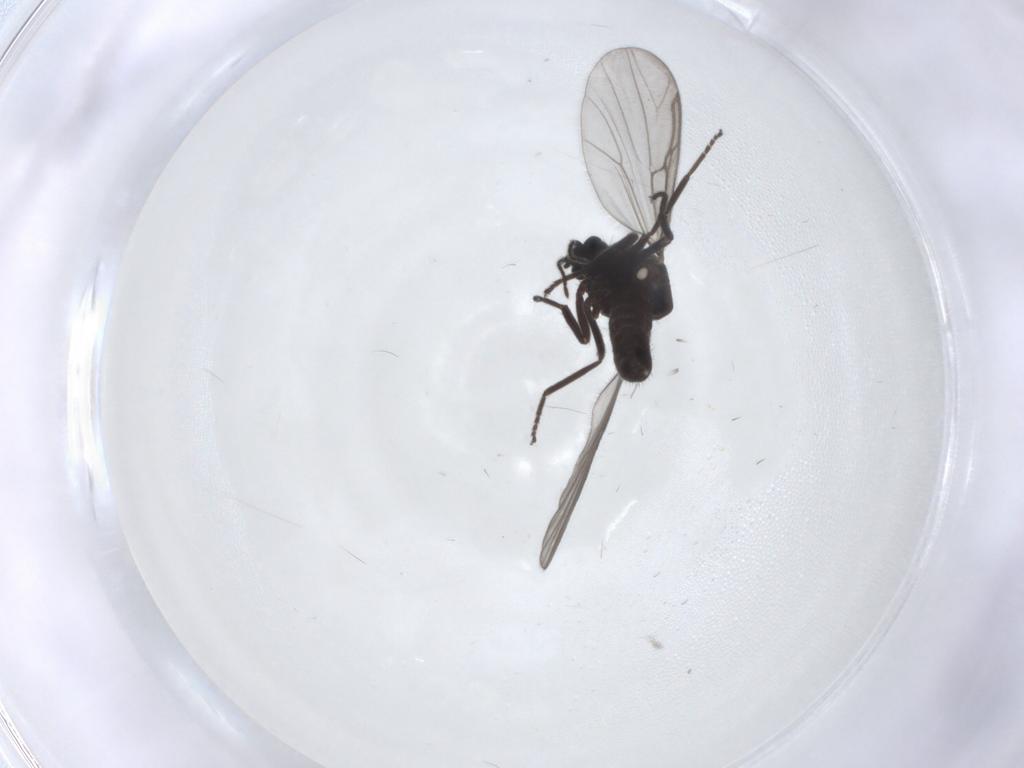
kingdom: Animalia
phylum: Arthropoda
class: Insecta
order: Diptera
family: Ceratopogonidae
